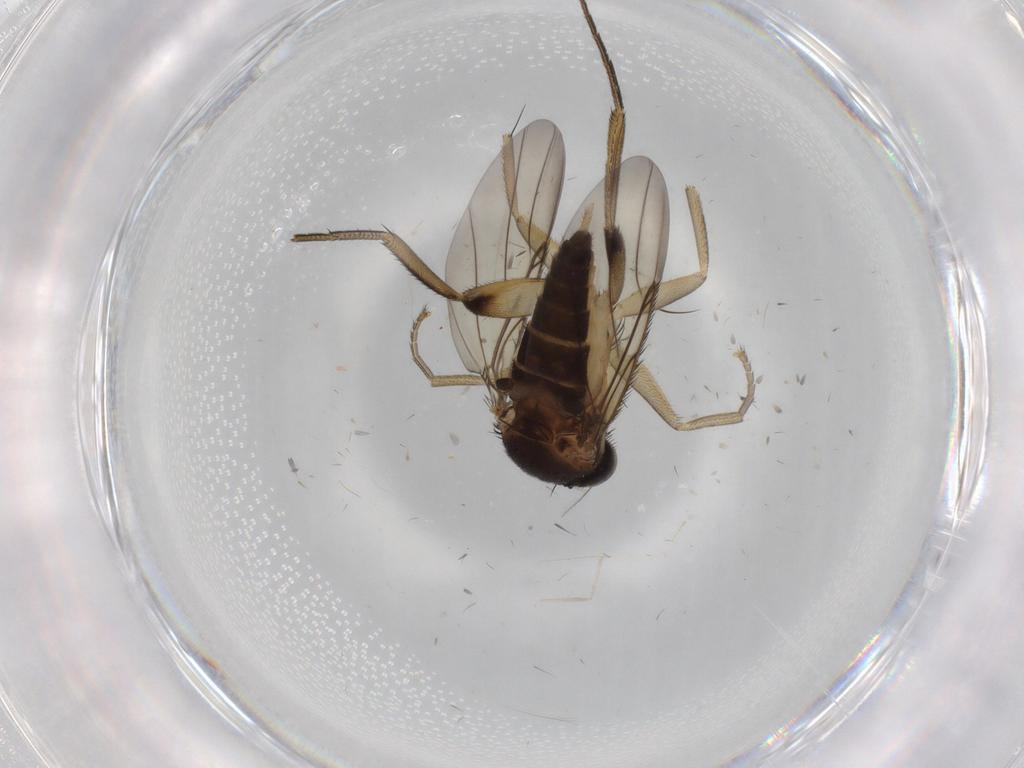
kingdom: Animalia
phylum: Arthropoda
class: Insecta
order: Diptera
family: Phoridae
